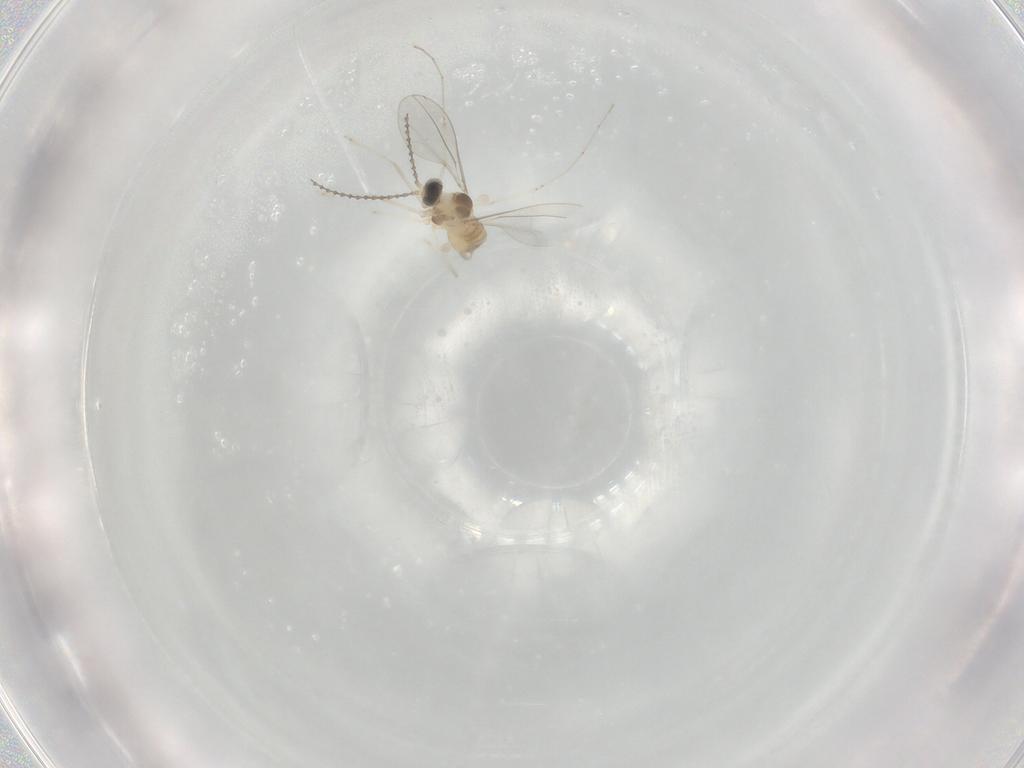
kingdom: Animalia
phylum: Arthropoda
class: Insecta
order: Diptera
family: Cecidomyiidae
